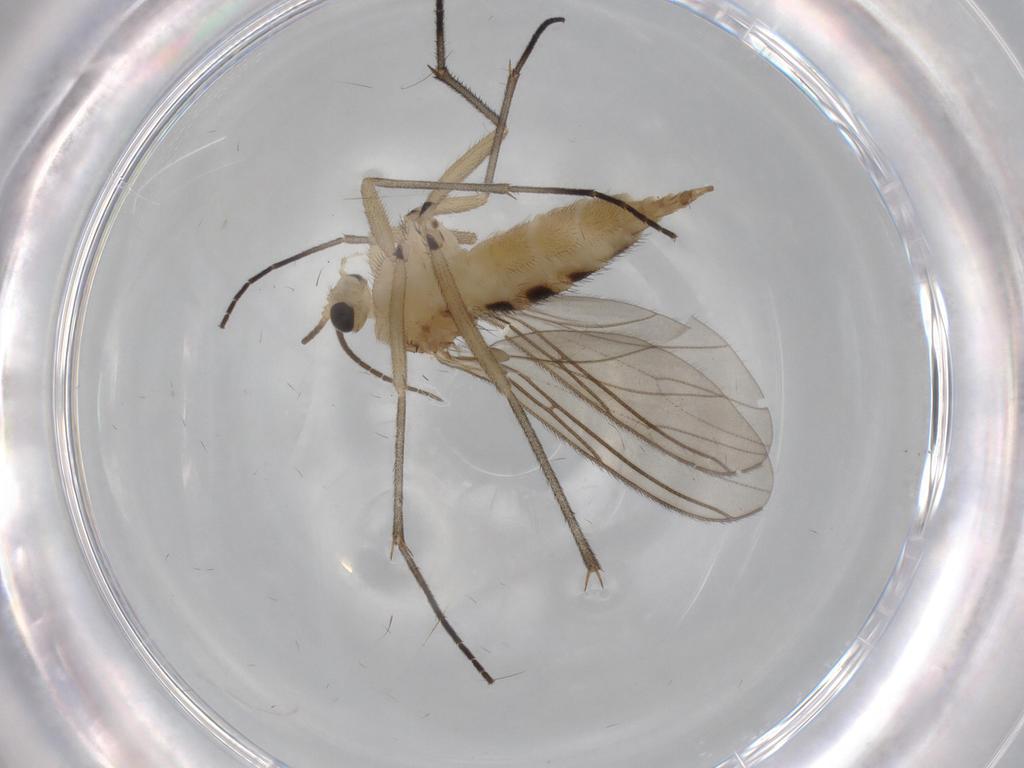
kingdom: Animalia
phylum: Arthropoda
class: Insecta
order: Diptera
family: Sciaridae
